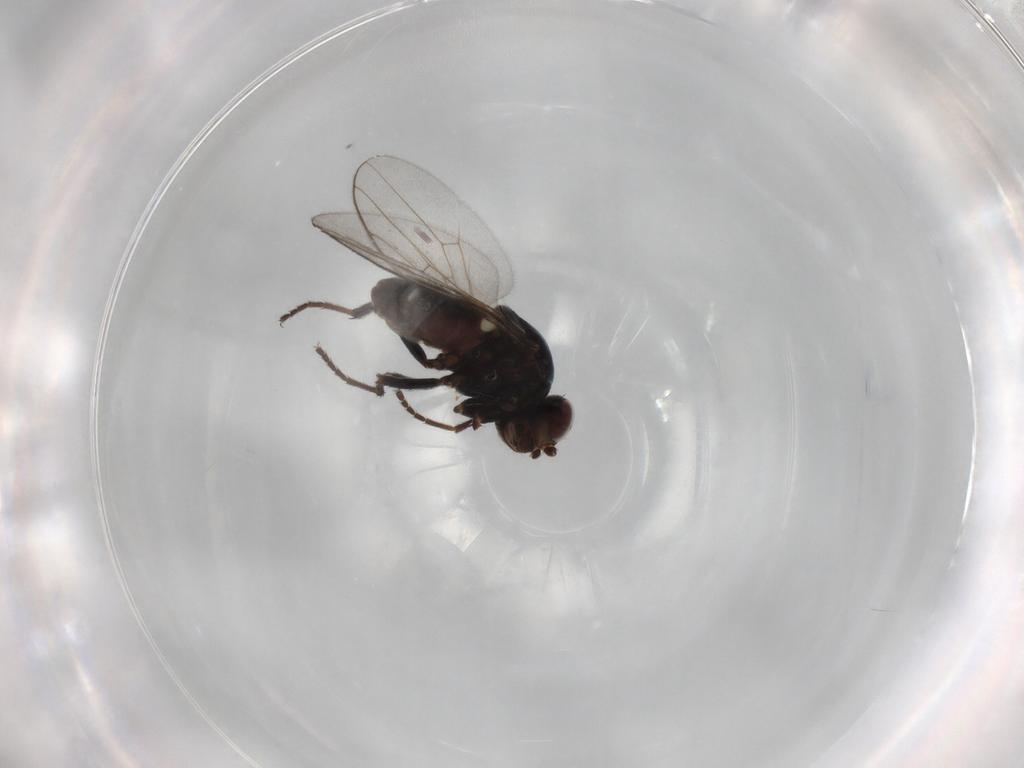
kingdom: Animalia
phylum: Arthropoda
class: Insecta
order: Diptera
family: Chloropidae
